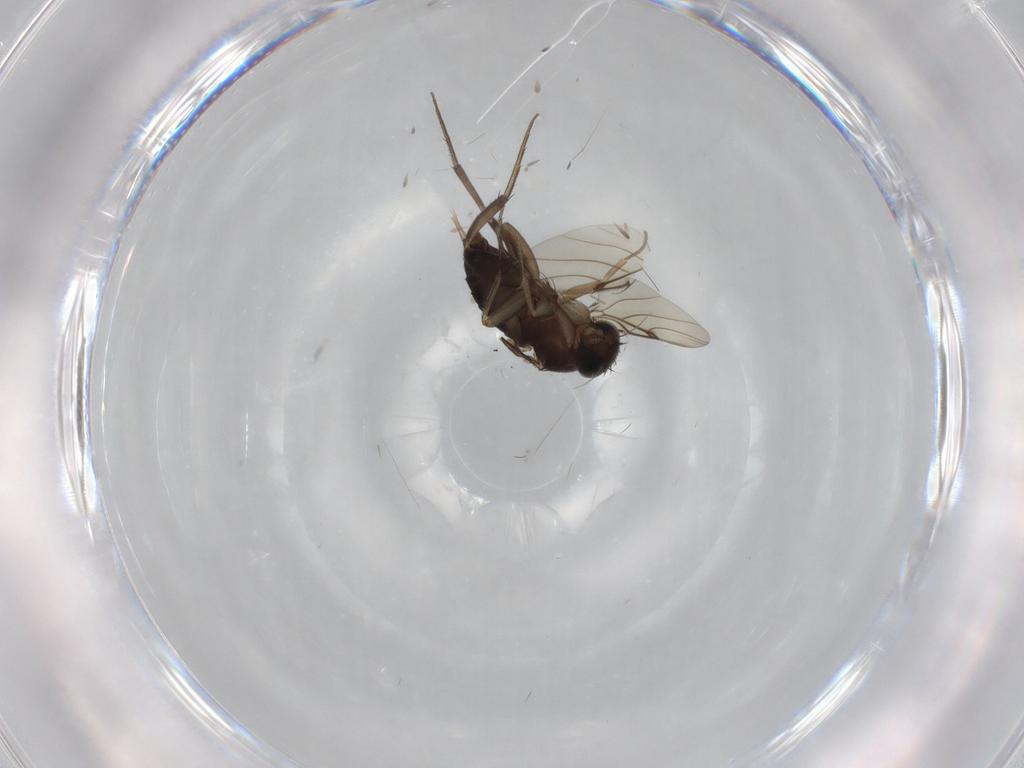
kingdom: Animalia
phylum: Arthropoda
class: Insecta
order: Diptera
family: Phoridae
